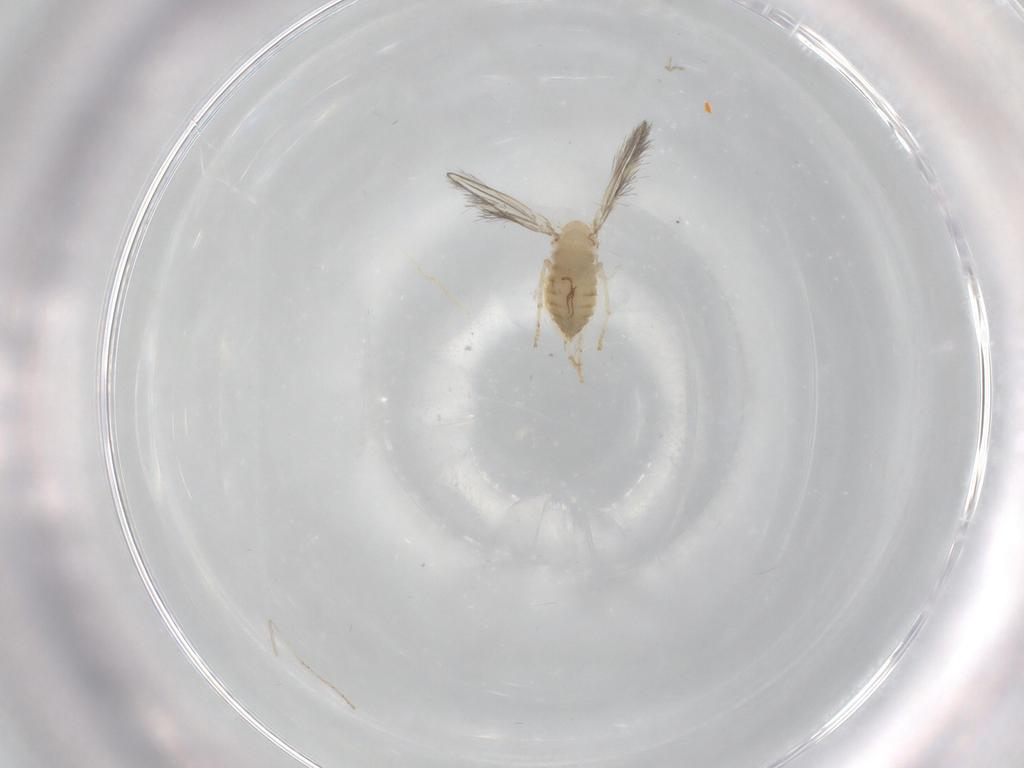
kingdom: Animalia
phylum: Arthropoda
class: Insecta
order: Diptera
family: Psychodidae
